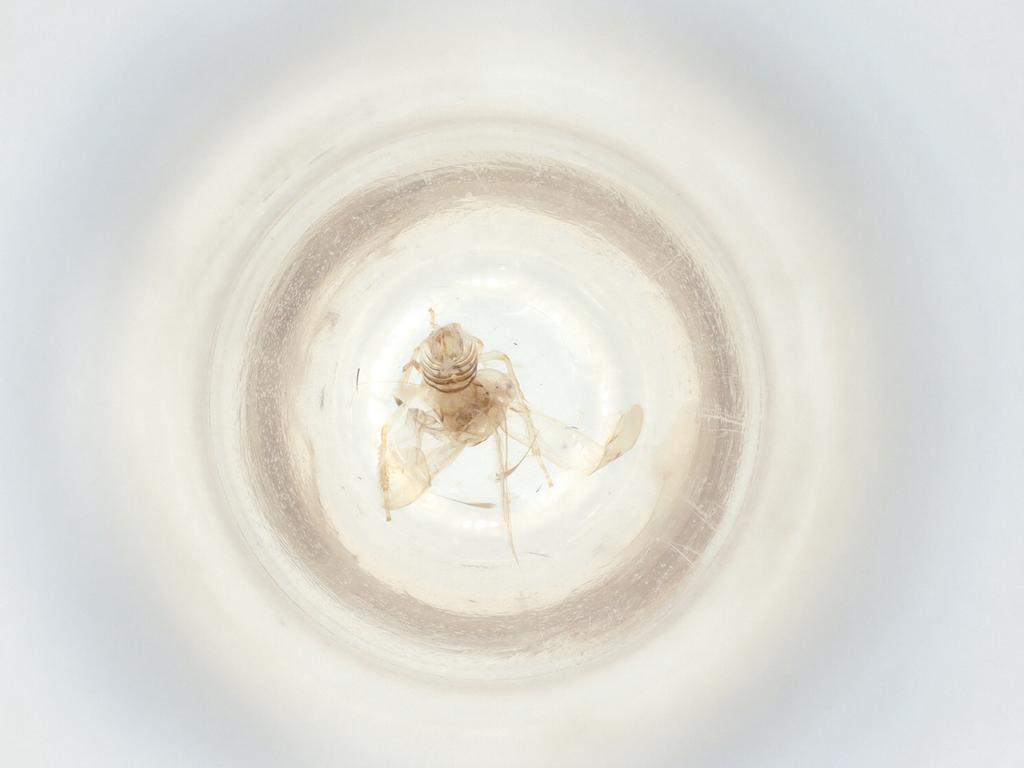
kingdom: Animalia
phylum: Arthropoda
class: Insecta
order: Hemiptera
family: Cicadellidae
